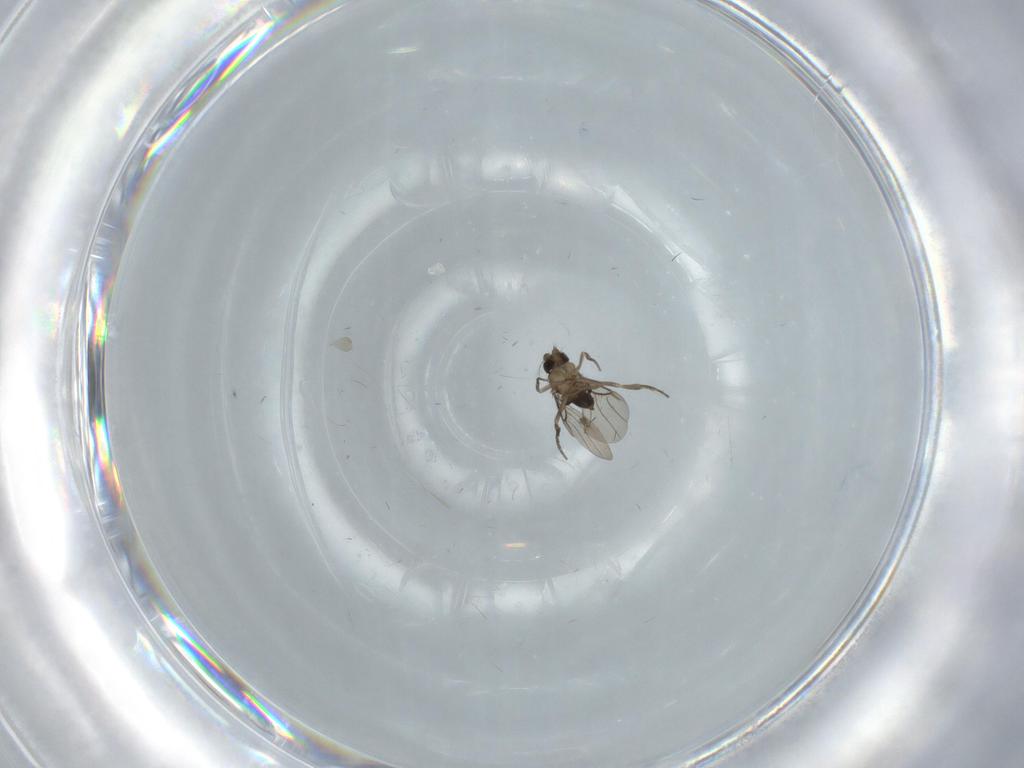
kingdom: Animalia
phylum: Arthropoda
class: Insecta
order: Diptera
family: Phoridae
